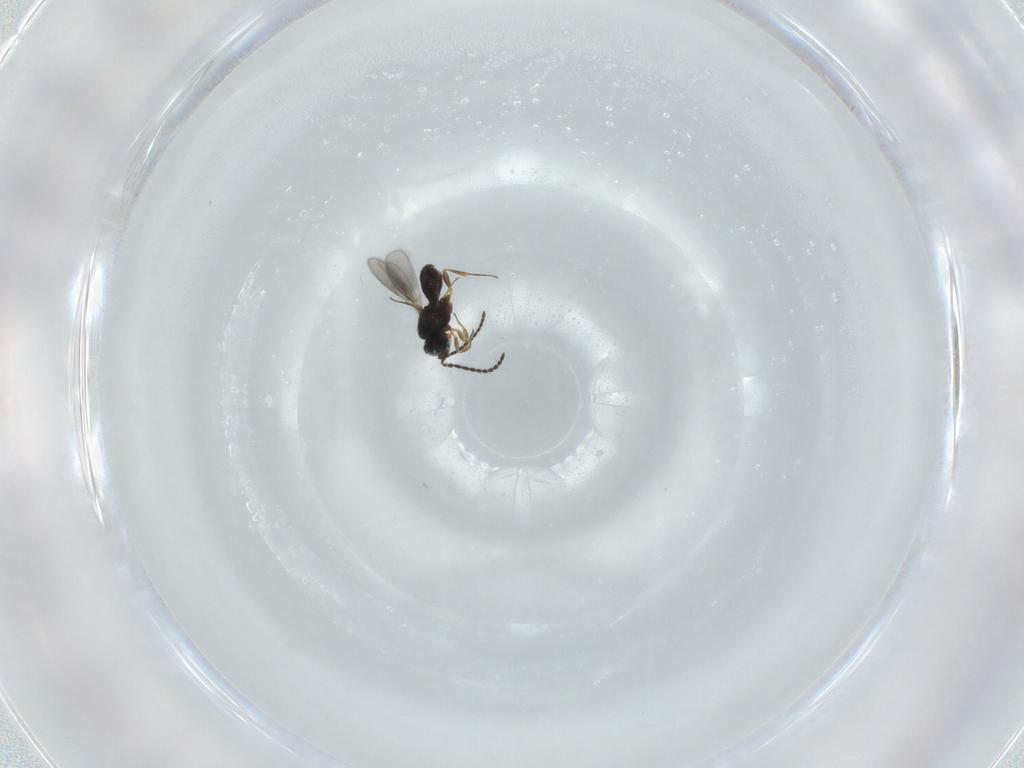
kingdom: Animalia
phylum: Arthropoda
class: Insecta
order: Hymenoptera
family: Scelionidae
